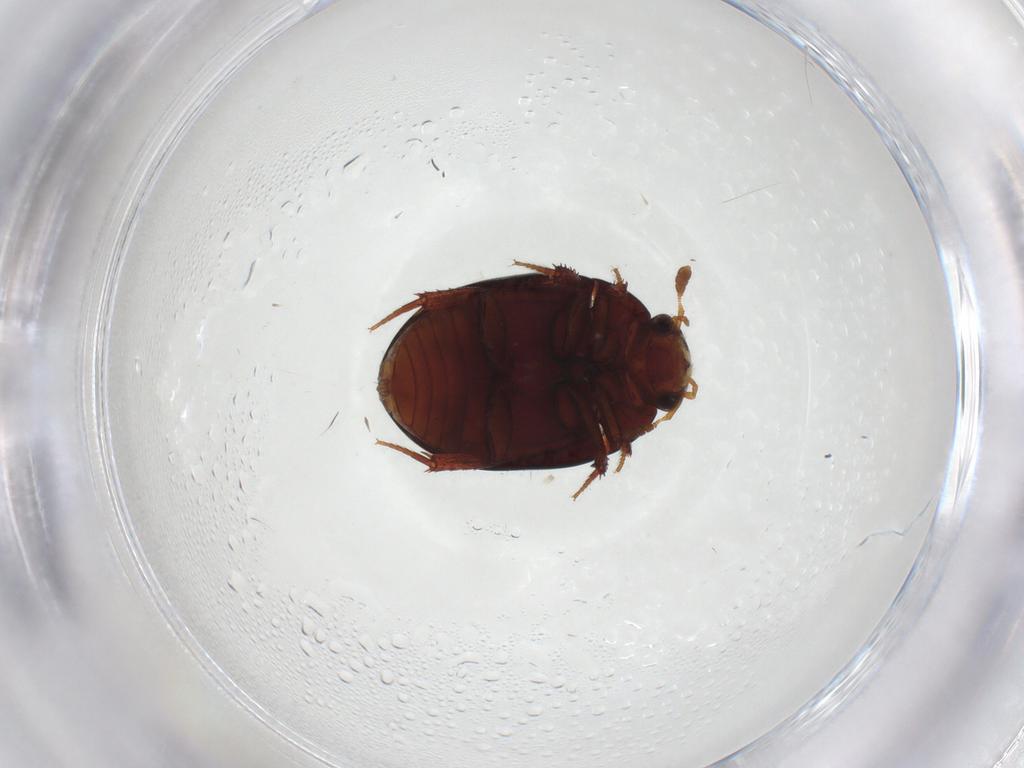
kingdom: Animalia
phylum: Arthropoda
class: Insecta
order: Coleoptera
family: Hydrophilidae
